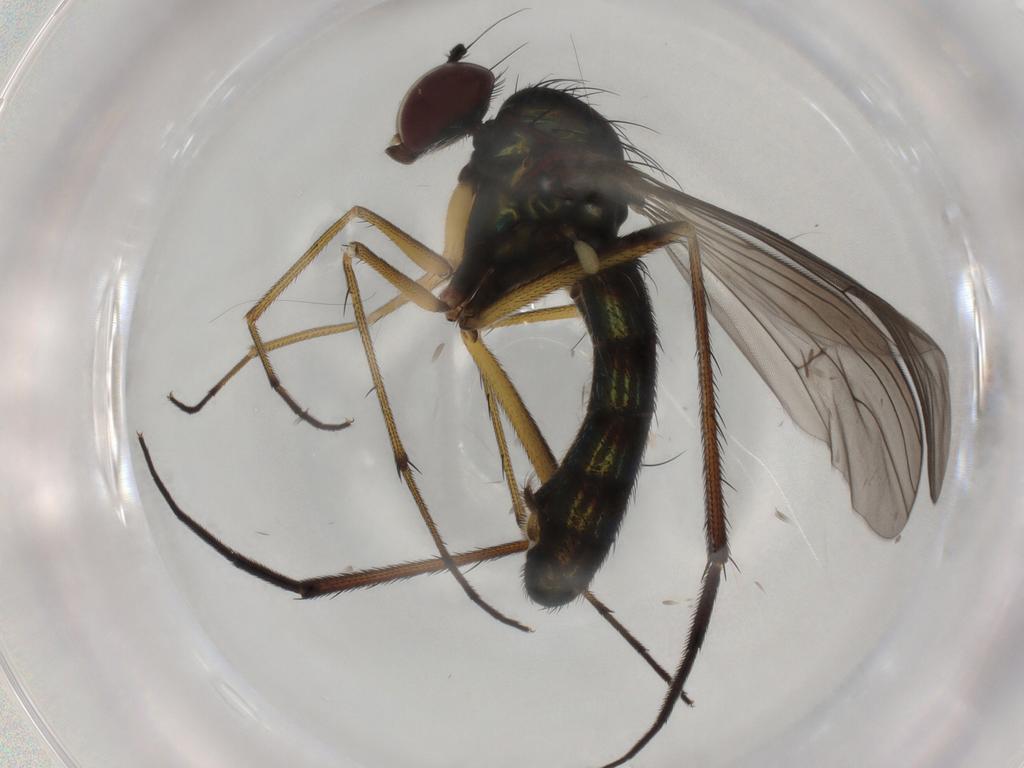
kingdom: Animalia
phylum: Arthropoda
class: Insecta
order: Diptera
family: Dolichopodidae
